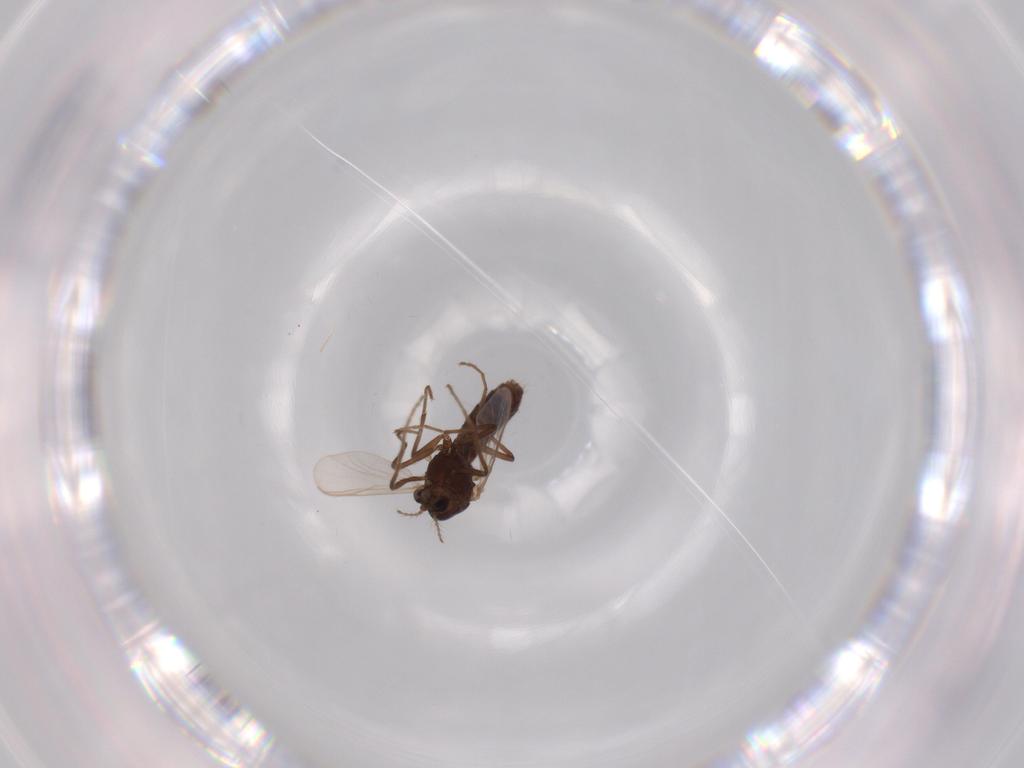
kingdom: Animalia
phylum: Arthropoda
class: Insecta
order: Diptera
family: Chironomidae
